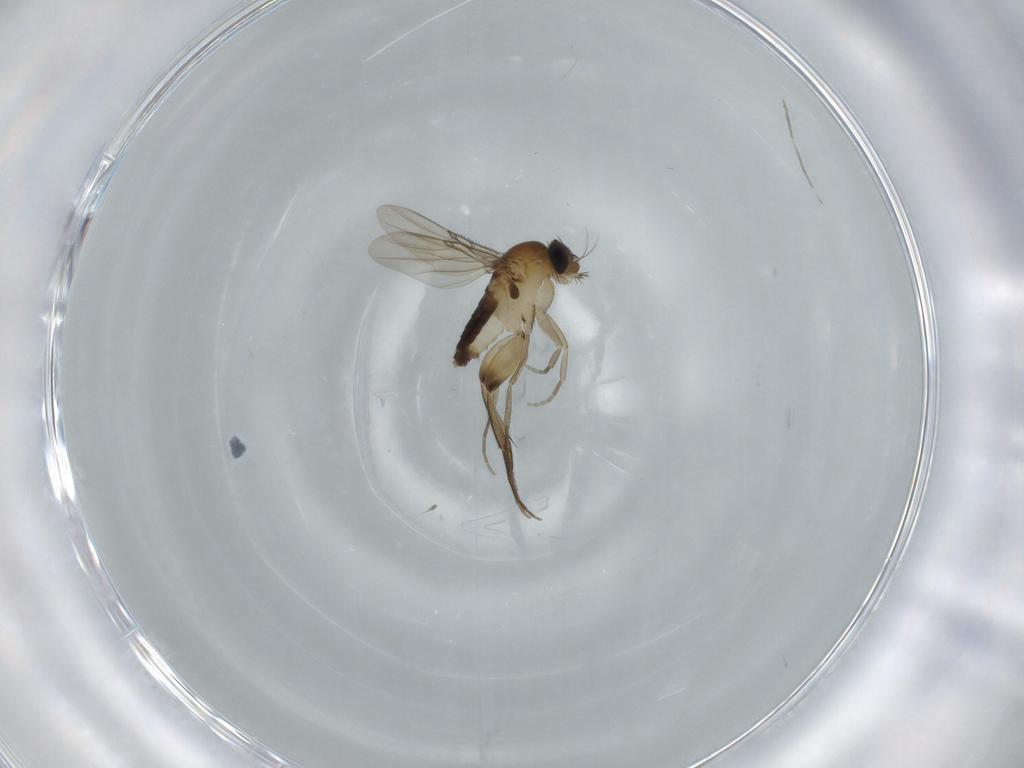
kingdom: Animalia
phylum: Arthropoda
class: Insecta
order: Diptera
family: Phoridae
